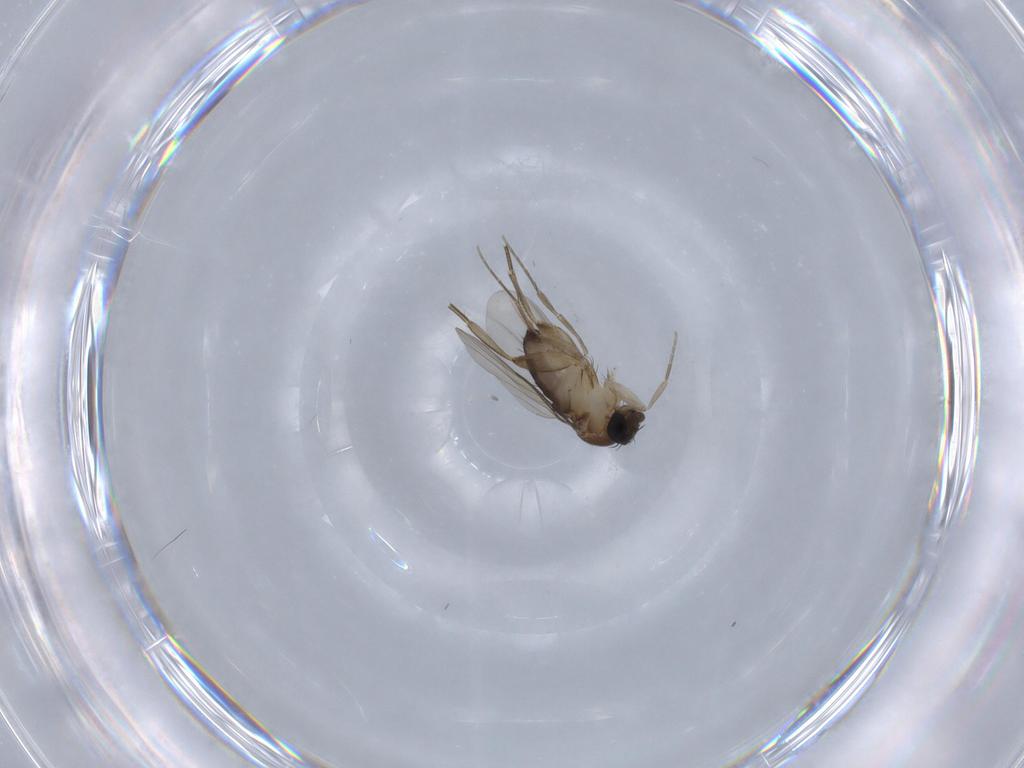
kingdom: Animalia
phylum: Arthropoda
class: Insecta
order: Diptera
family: Phoridae
